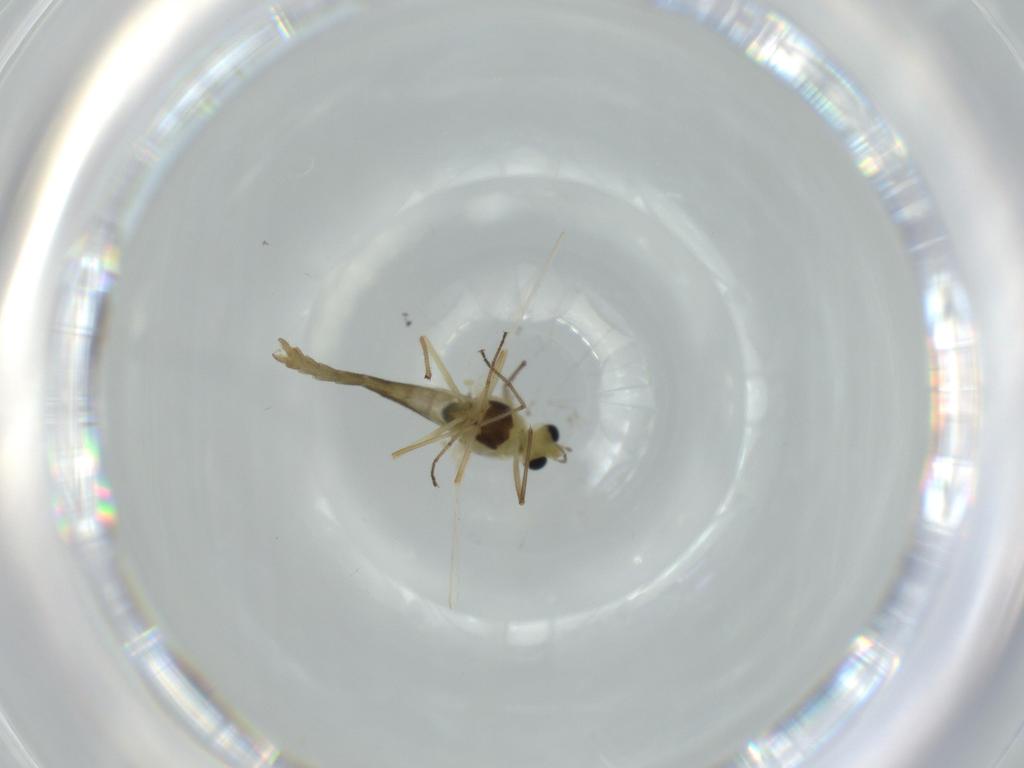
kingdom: Animalia
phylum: Arthropoda
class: Insecta
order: Diptera
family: Chironomidae
